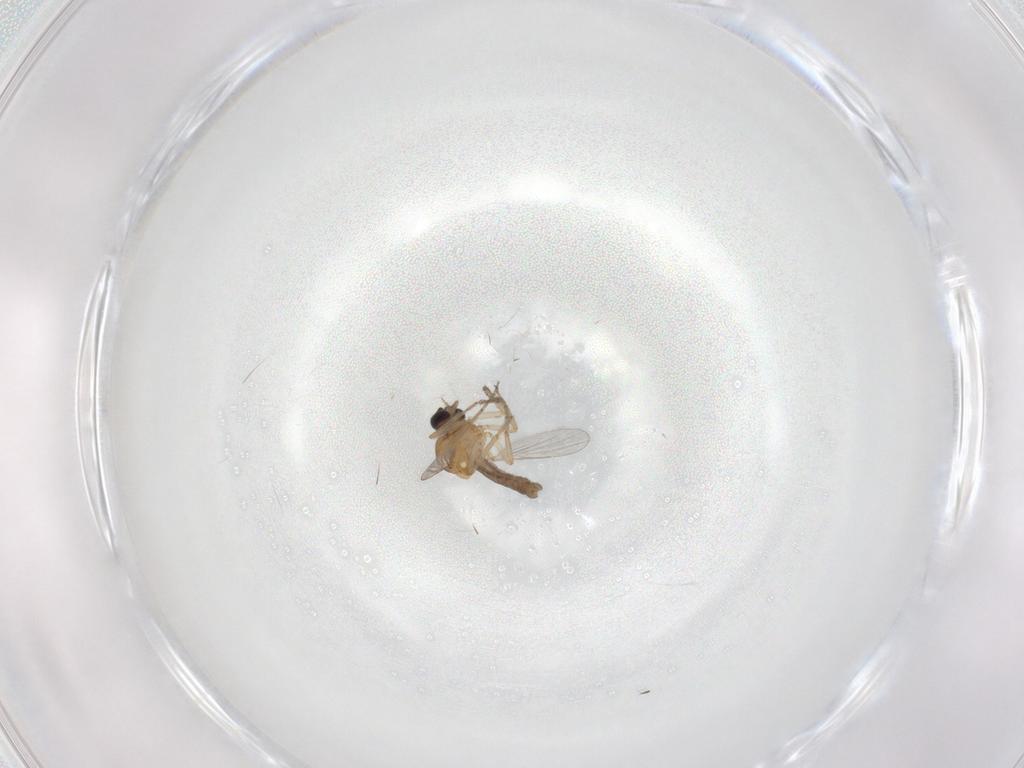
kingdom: Animalia
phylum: Arthropoda
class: Insecta
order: Diptera
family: Ceratopogonidae
